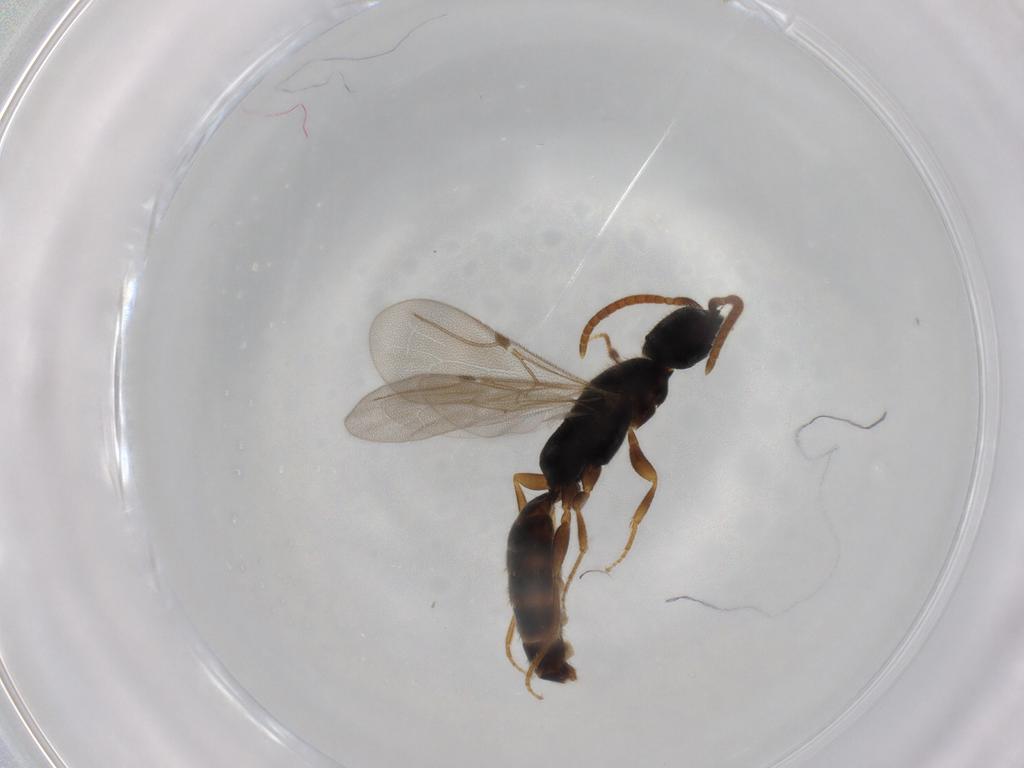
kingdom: Animalia
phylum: Arthropoda
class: Insecta
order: Hymenoptera
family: Bethylidae
